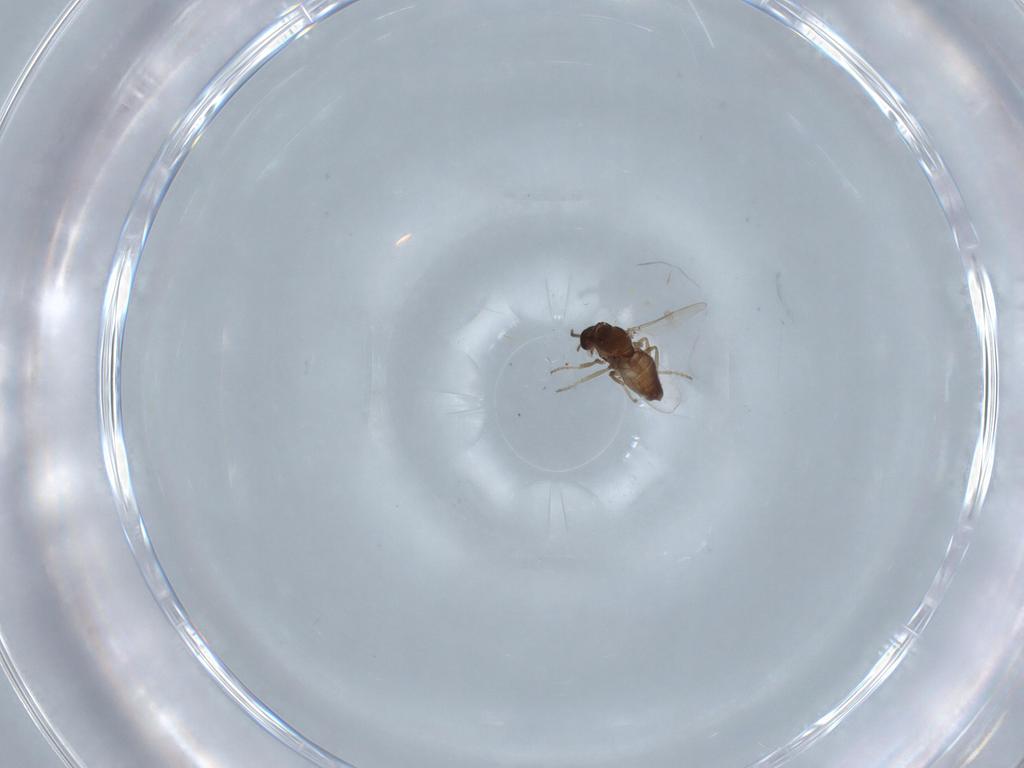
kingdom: Animalia
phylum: Arthropoda
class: Insecta
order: Diptera
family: Ceratopogonidae
